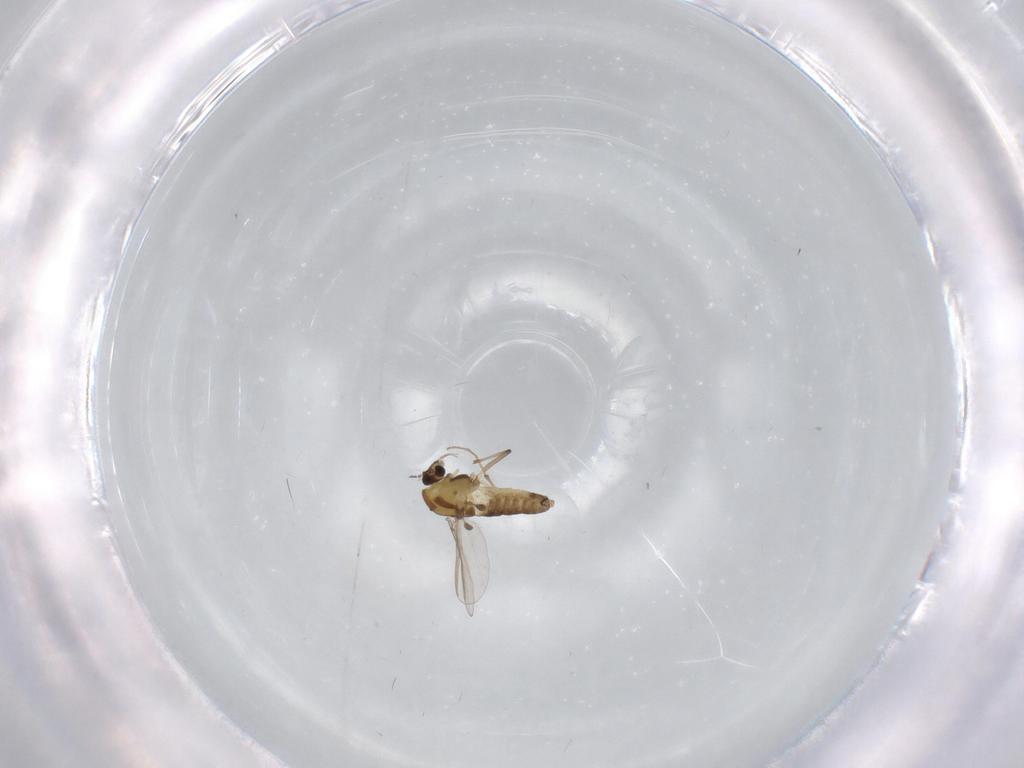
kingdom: Animalia
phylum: Arthropoda
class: Insecta
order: Diptera
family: Chironomidae
